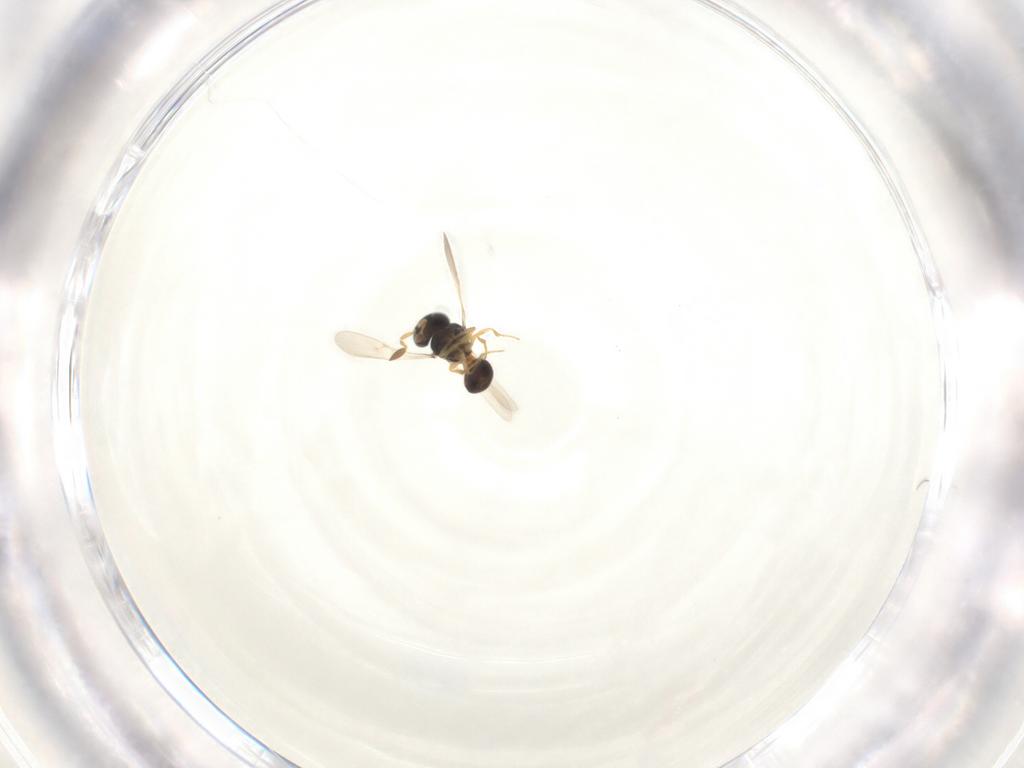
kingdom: Animalia
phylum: Arthropoda
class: Insecta
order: Hymenoptera
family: Scelionidae
